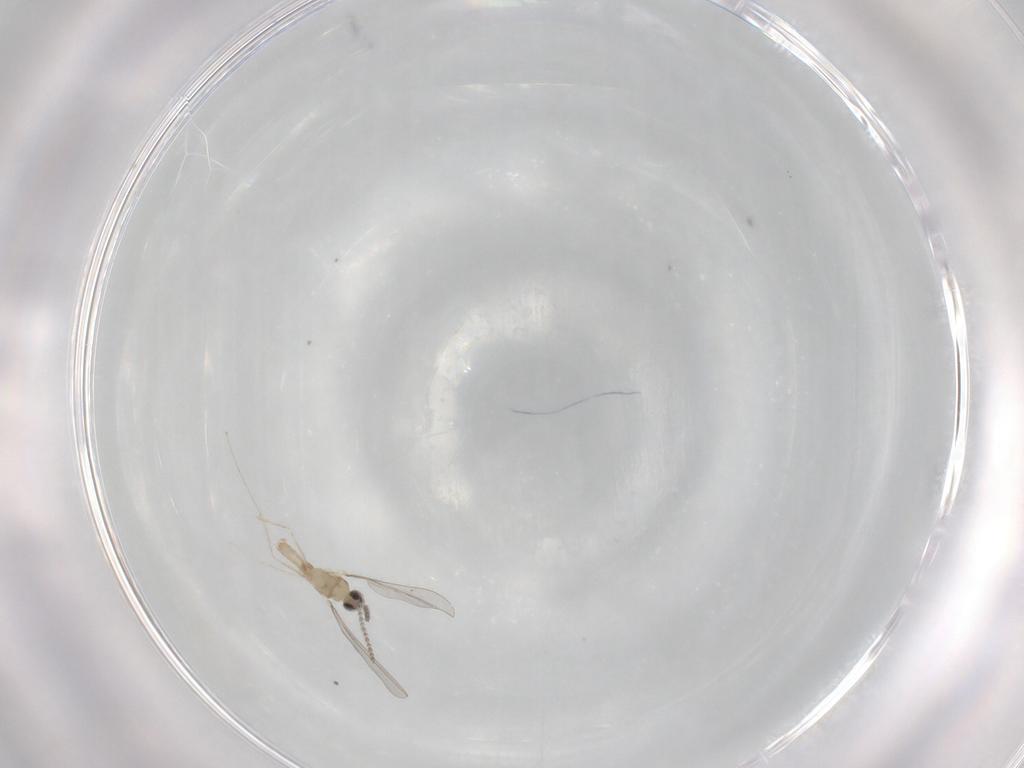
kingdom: Animalia
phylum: Arthropoda
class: Insecta
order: Diptera
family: Cecidomyiidae
